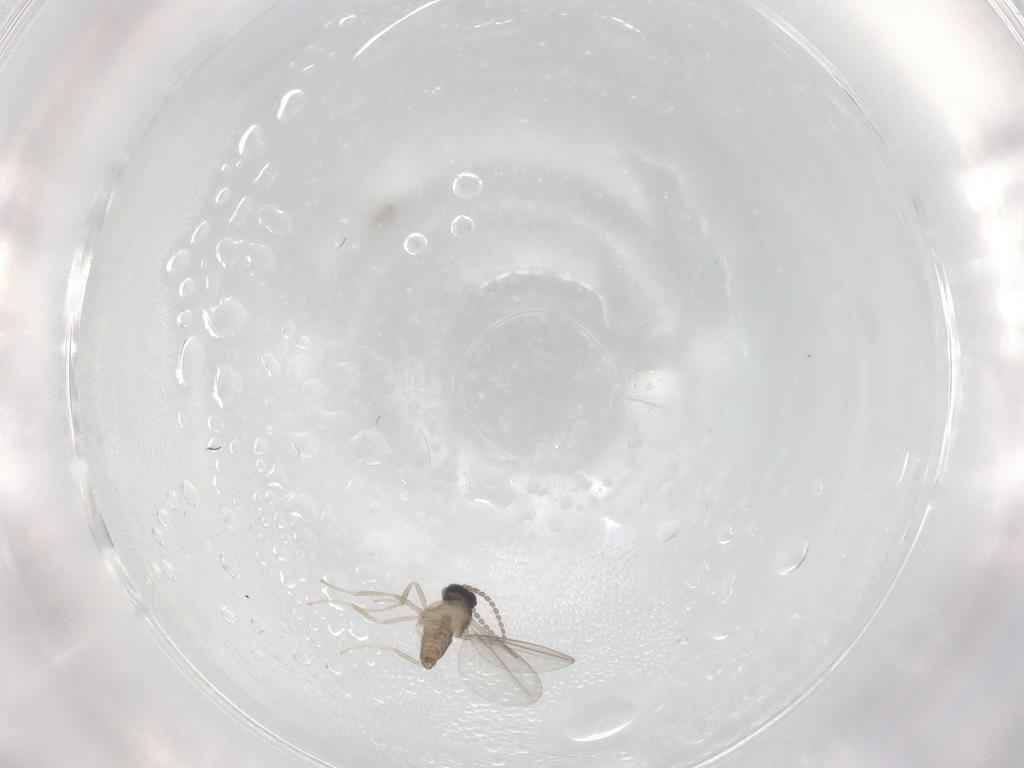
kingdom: Animalia
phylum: Arthropoda
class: Insecta
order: Diptera
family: Cecidomyiidae
